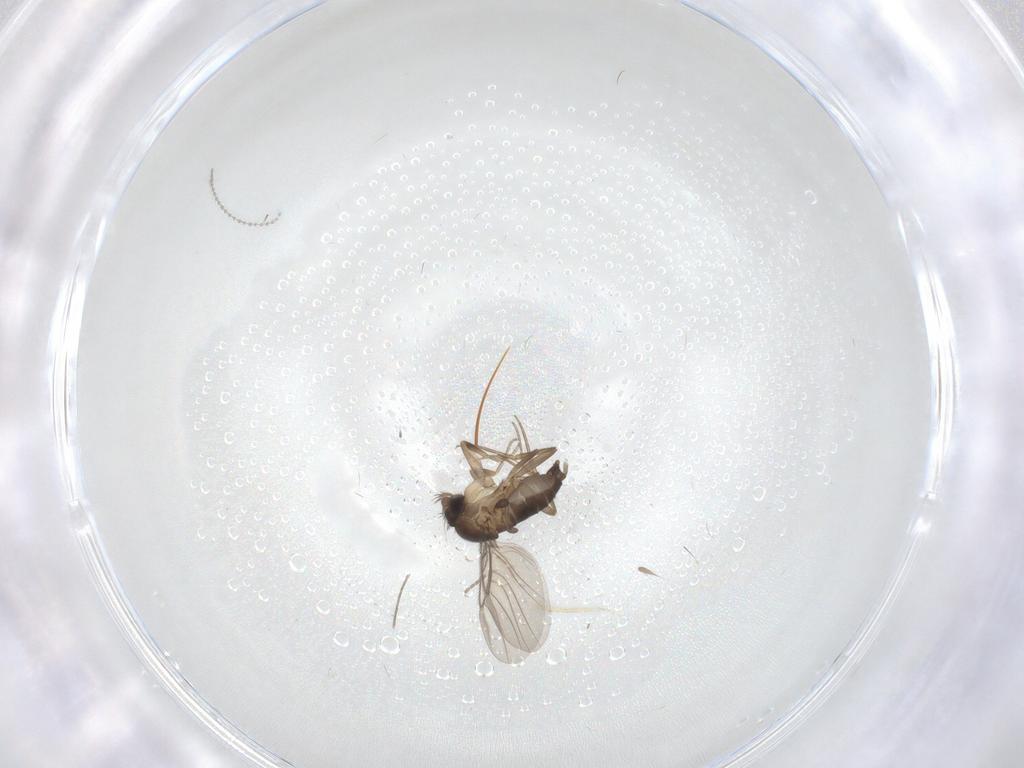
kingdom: Animalia
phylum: Arthropoda
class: Insecta
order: Diptera
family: Phoridae
